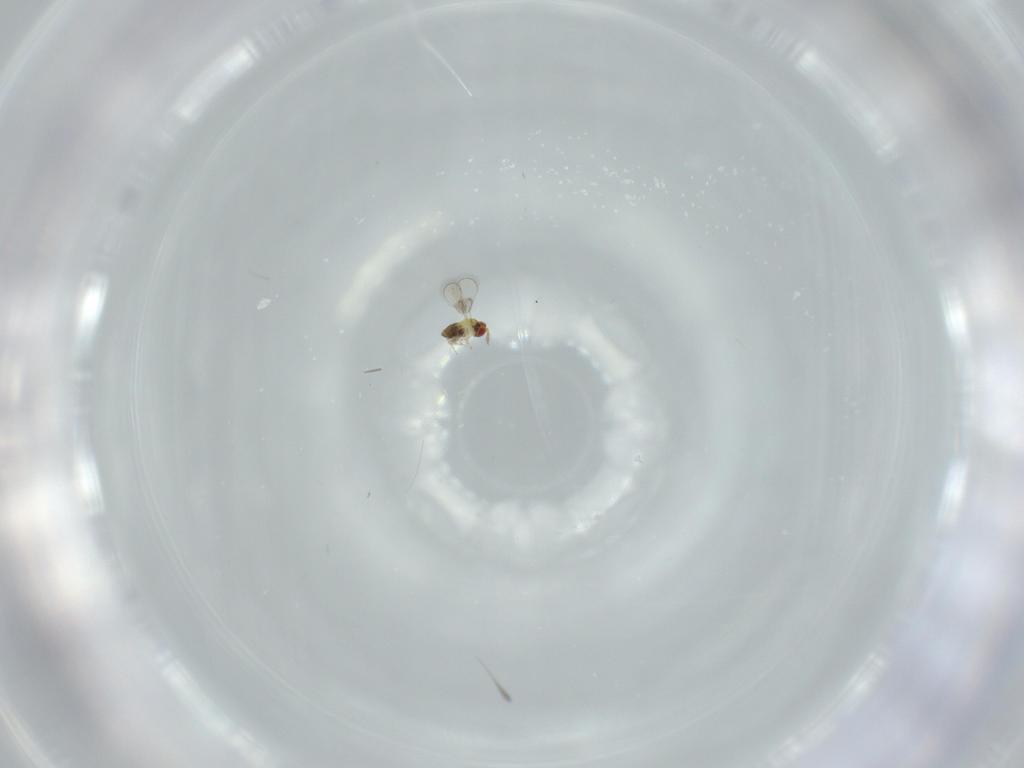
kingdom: Animalia
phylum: Arthropoda
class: Insecta
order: Hymenoptera
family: Trichogrammatidae
